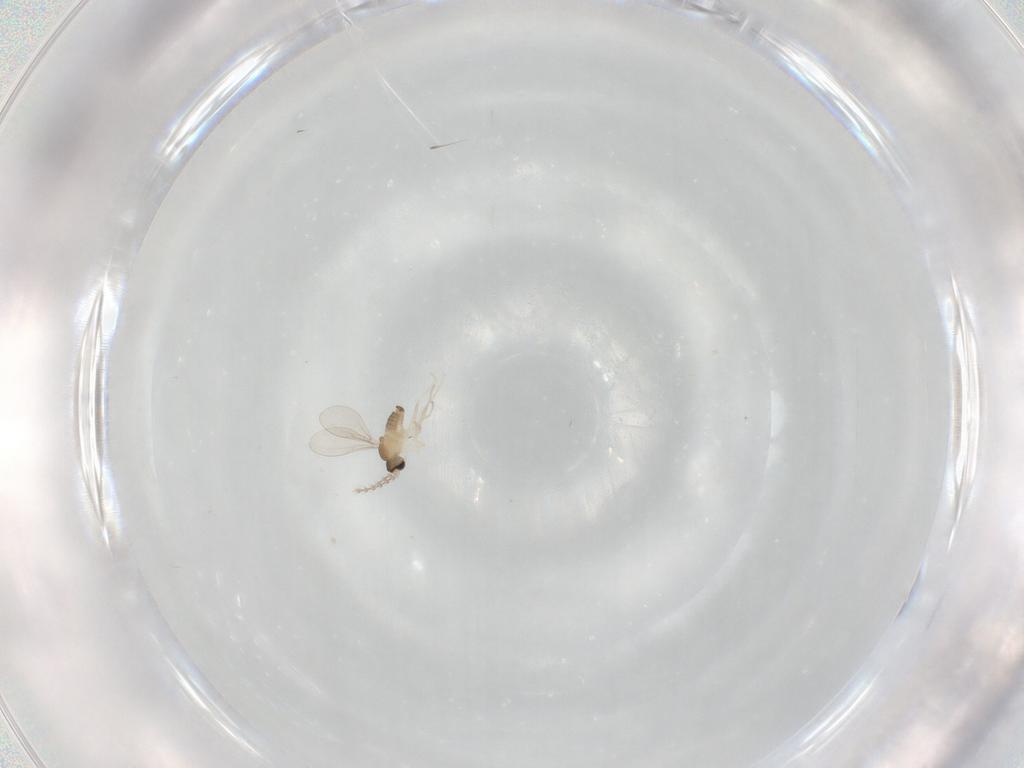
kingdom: Animalia
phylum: Arthropoda
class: Insecta
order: Diptera
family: Cecidomyiidae
